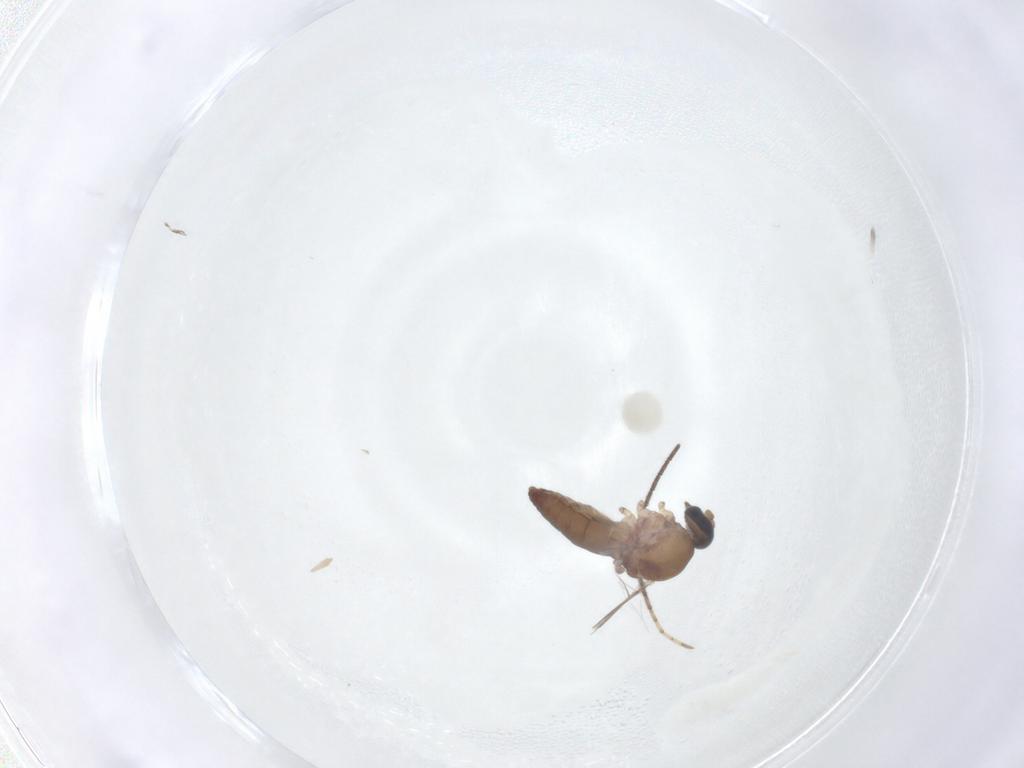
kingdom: Animalia
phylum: Arthropoda
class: Insecta
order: Diptera
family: Ceratopogonidae
